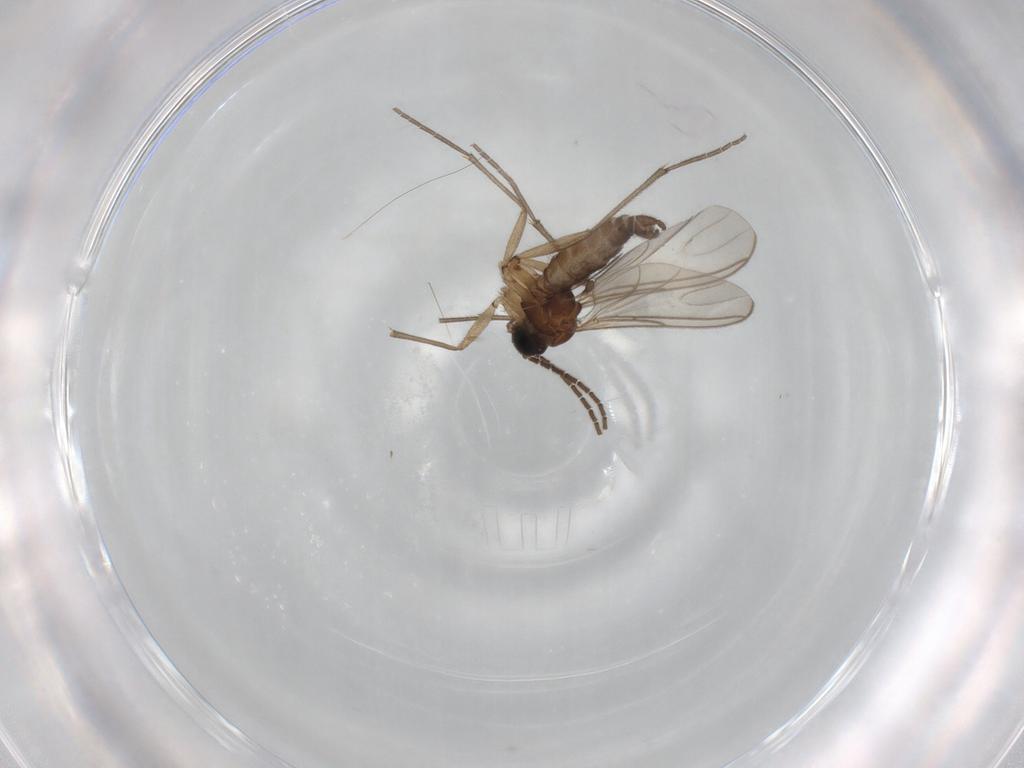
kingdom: Animalia
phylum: Arthropoda
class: Insecta
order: Diptera
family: Sciaridae
